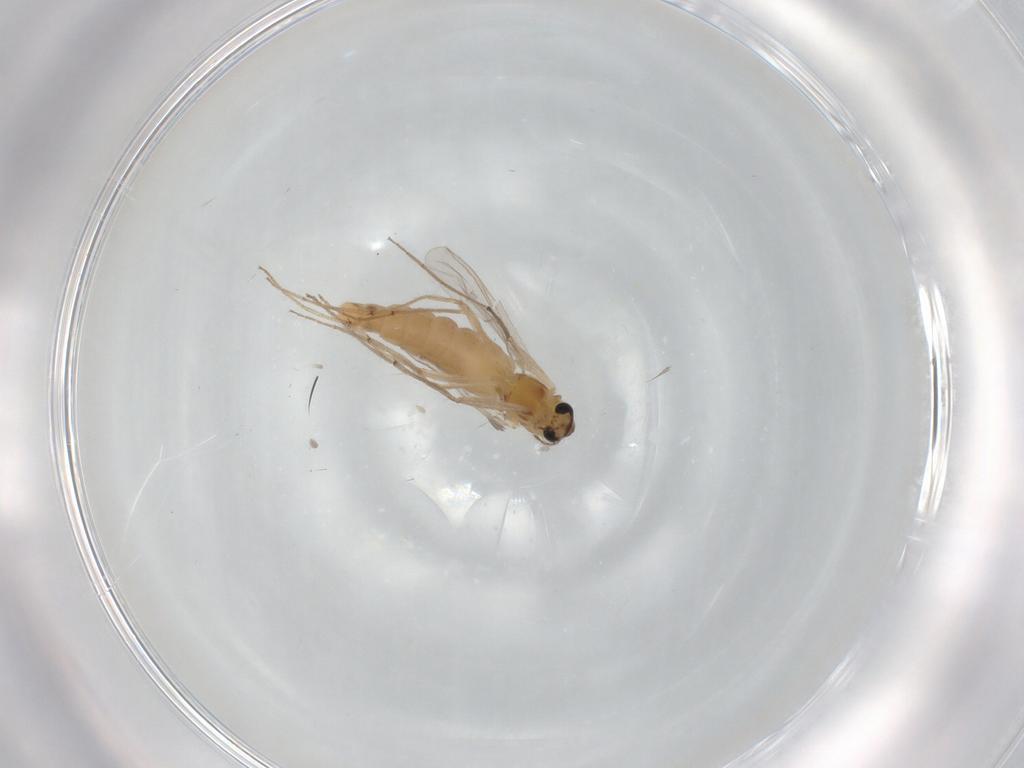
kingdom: Animalia
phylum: Arthropoda
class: Insecta
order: Diptera
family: Chironomidae
